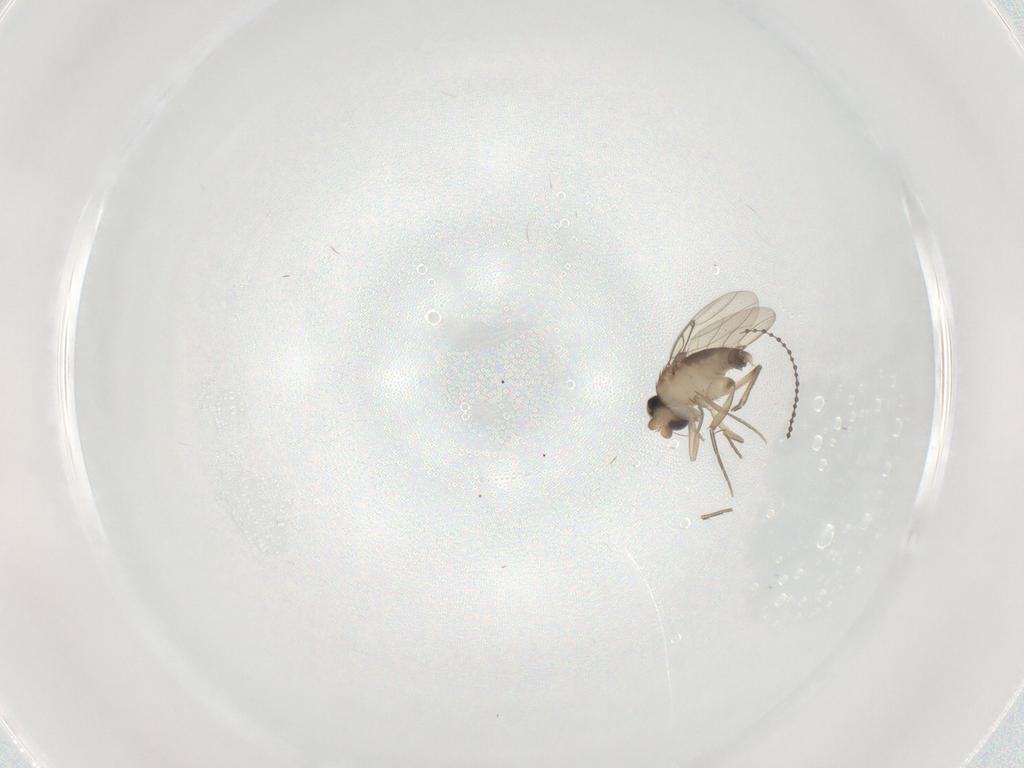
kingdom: Animalia
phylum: Arthropoda
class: Insecta
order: Diptera
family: Phoridae
